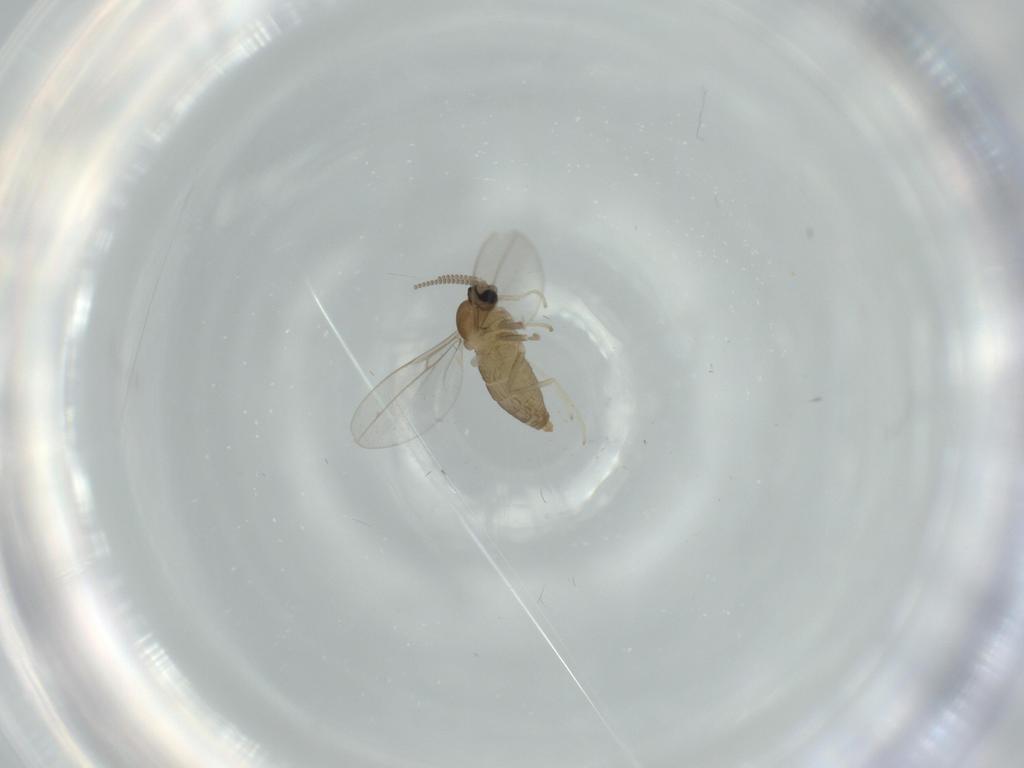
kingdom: Animalia
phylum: Arthropoda
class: Insecta
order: Diptera
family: Cecidomyiidae
